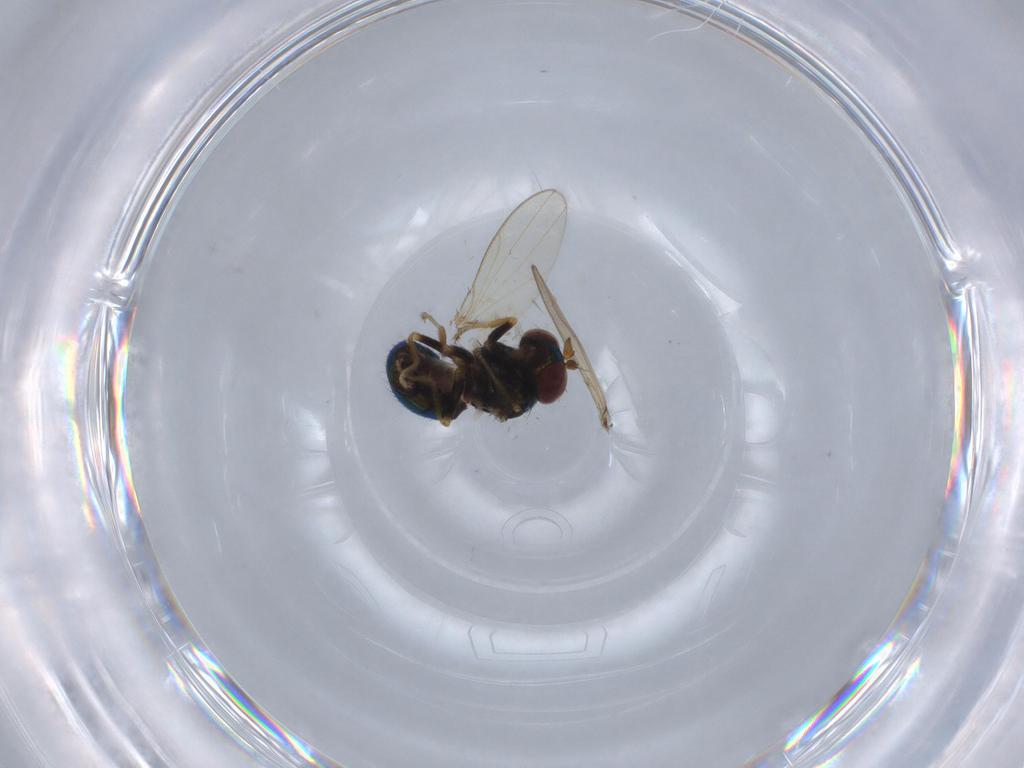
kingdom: Animalia
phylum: Arthropoda
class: Insecta
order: Diptera
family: Ephydridae
